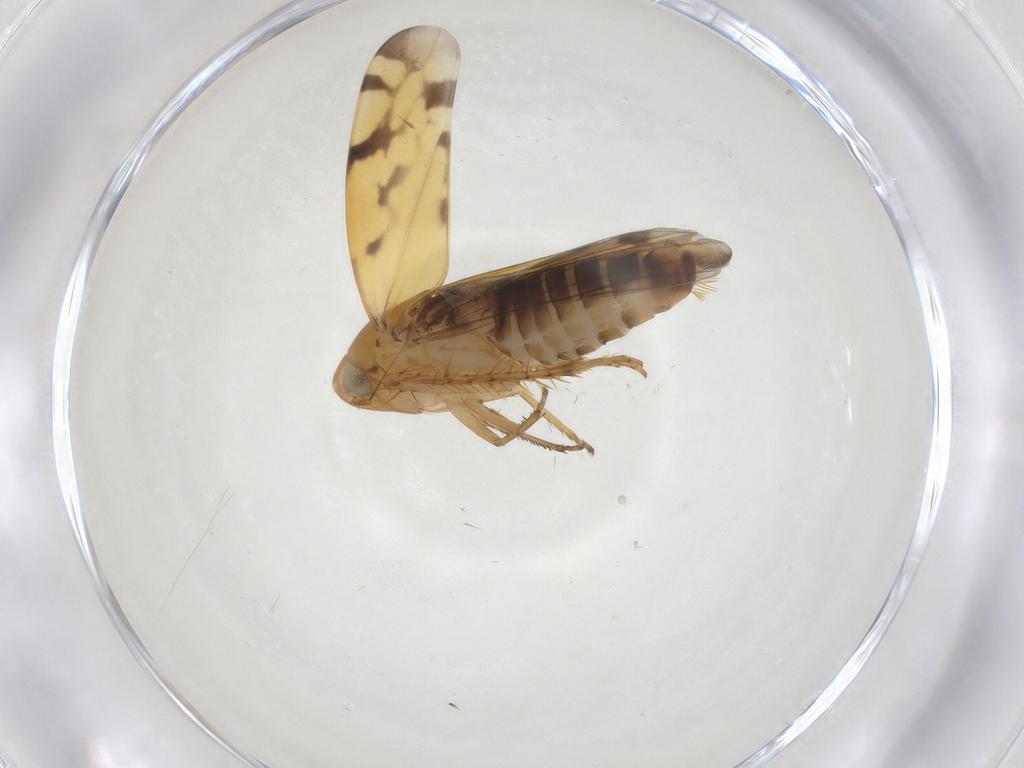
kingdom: Animalia
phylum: Arthropoda
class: Insecta
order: Hemiptera
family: Cicadellidae
